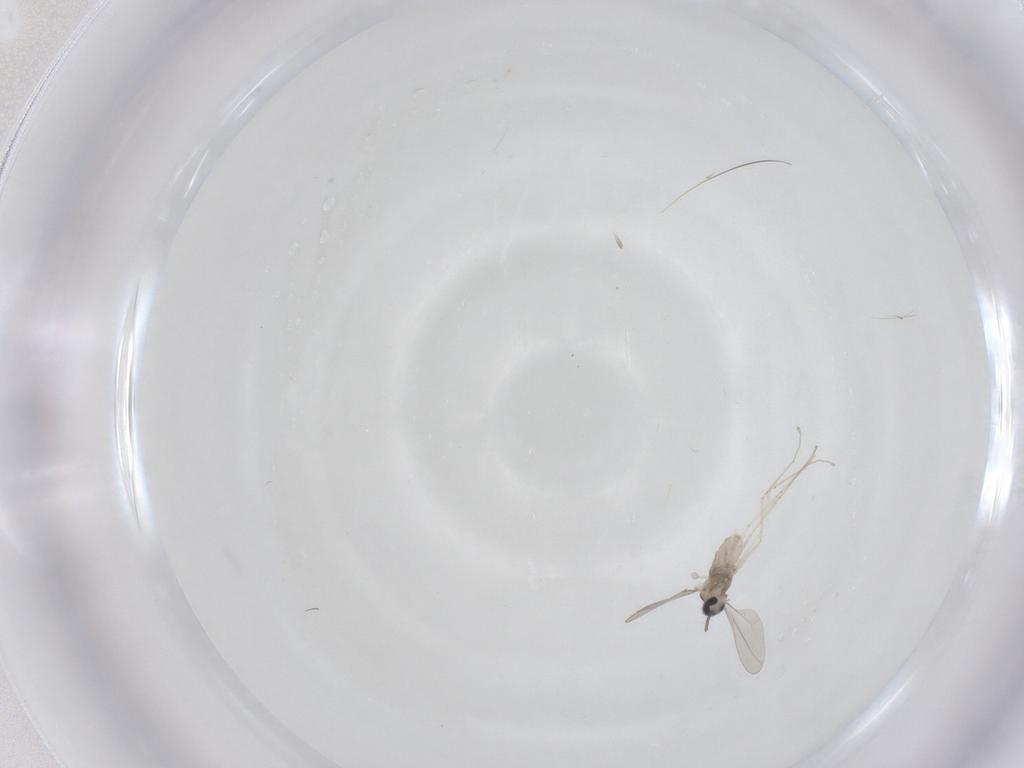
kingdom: Animalia
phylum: Arthropoda
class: Insecta
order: Diptera
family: Cecidomyiidae
